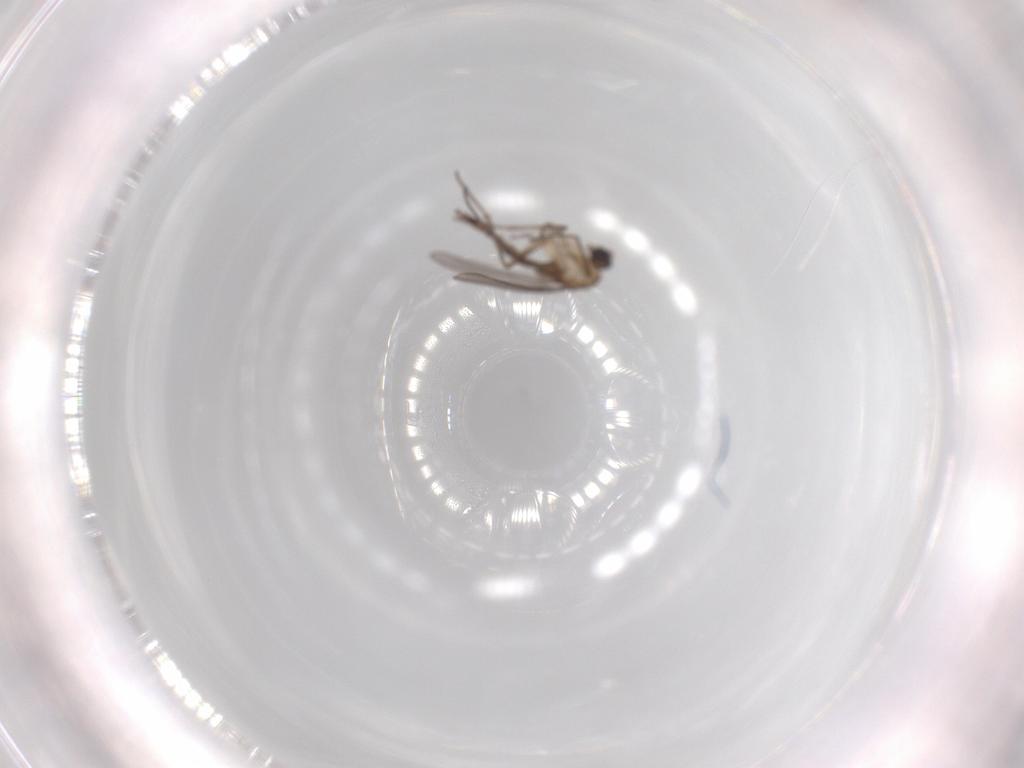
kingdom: Animalia
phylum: Arthropoda
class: Insecta
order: Diptera
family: Sciaridae
